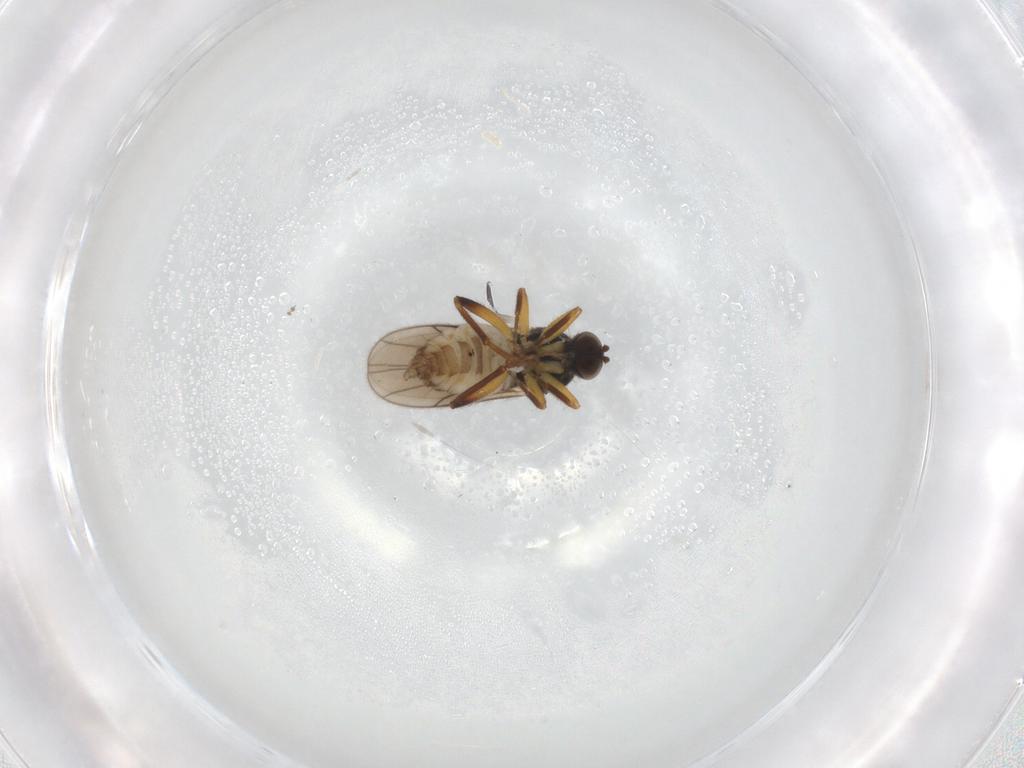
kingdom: Animalia
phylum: Arthropoda
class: Insecta
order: Diptera
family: Hybotidae
